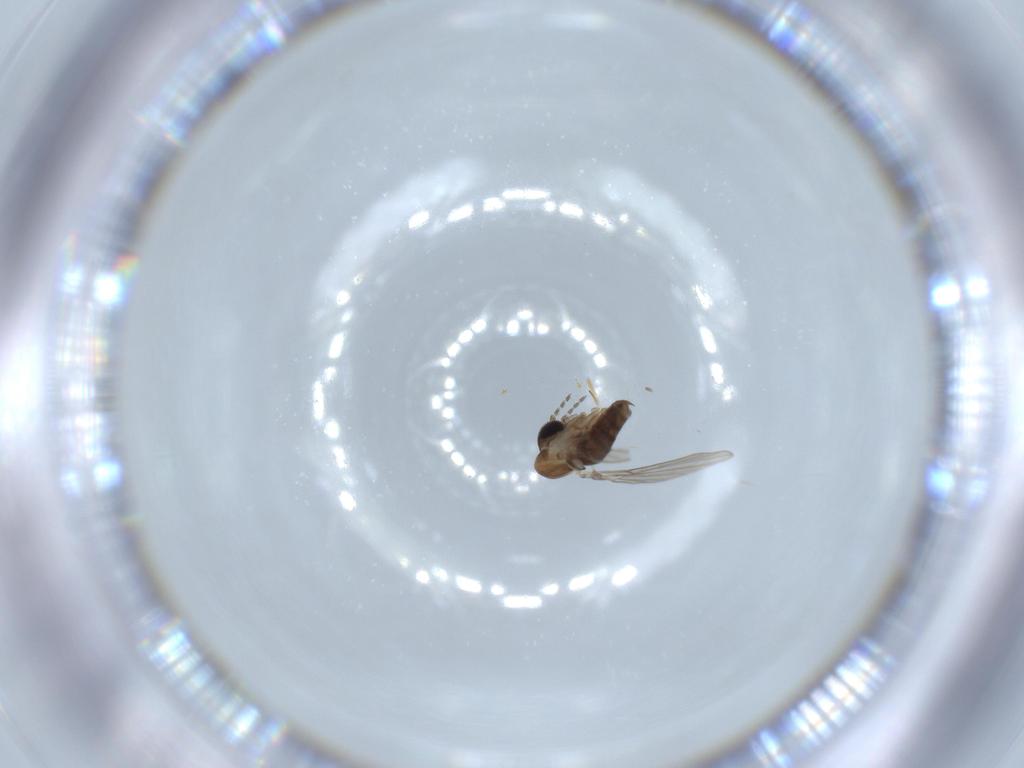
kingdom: Animalia
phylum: Arthropoda
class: Insecta
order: Diptera
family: Psychodidae
